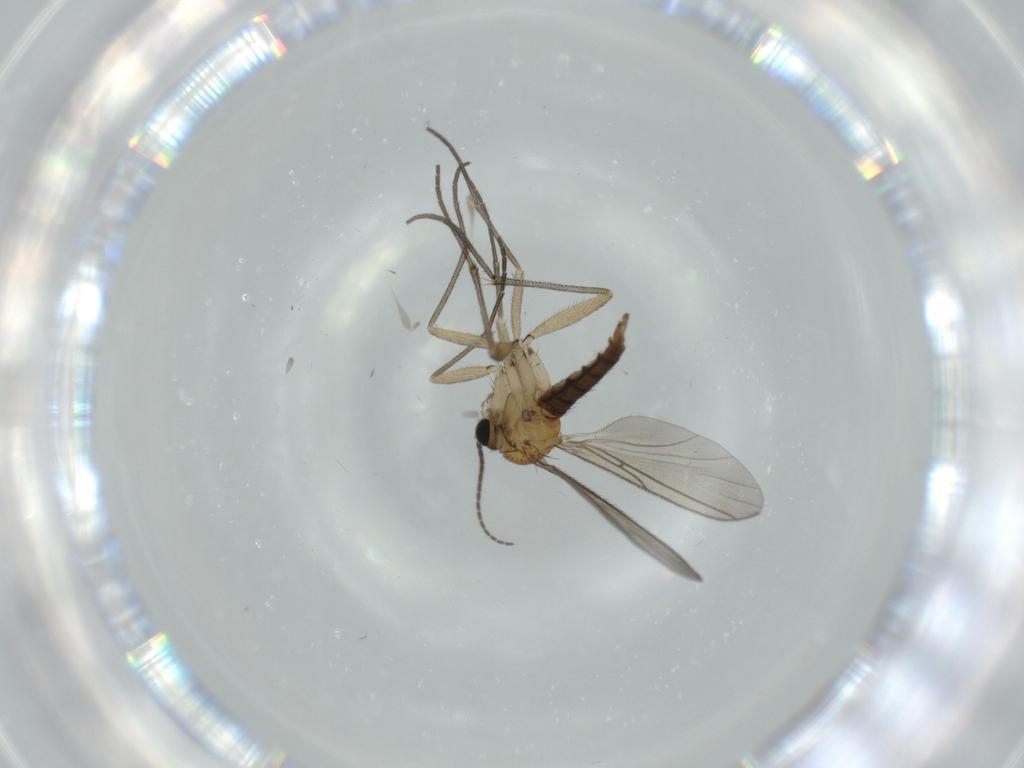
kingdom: Animalia
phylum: Arthropoda
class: Insecta
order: Diptera
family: Sciaridae
